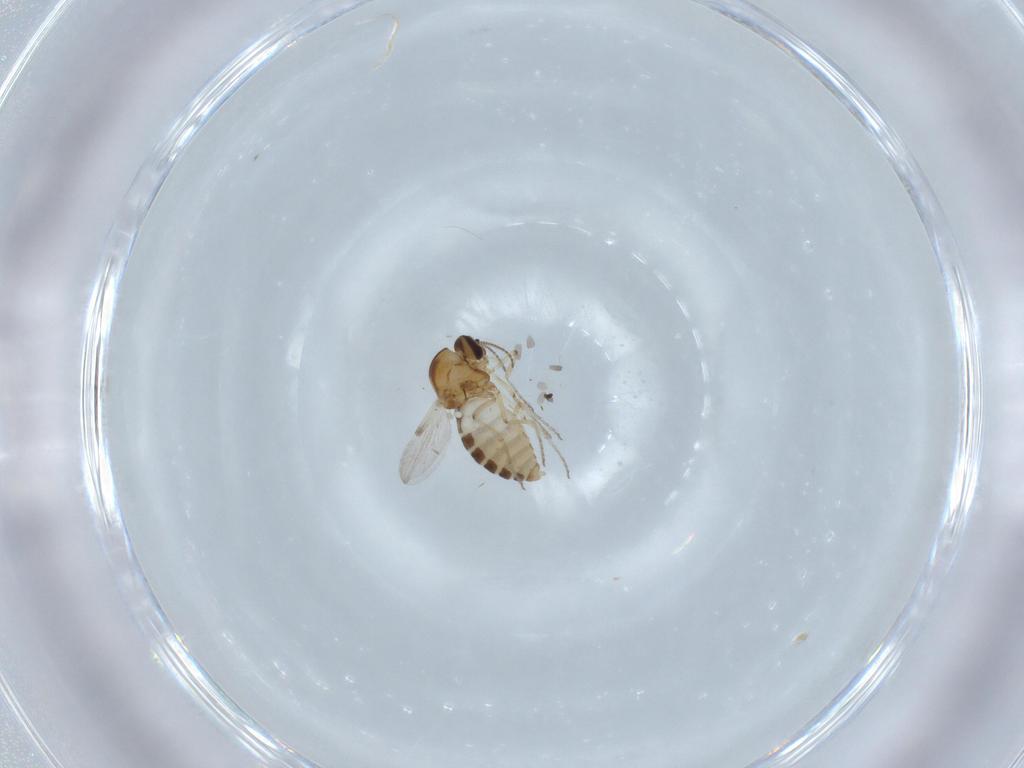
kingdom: Animalia
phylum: Arthropoda
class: Insecta
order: Diptera
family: Ceratopogonidae
